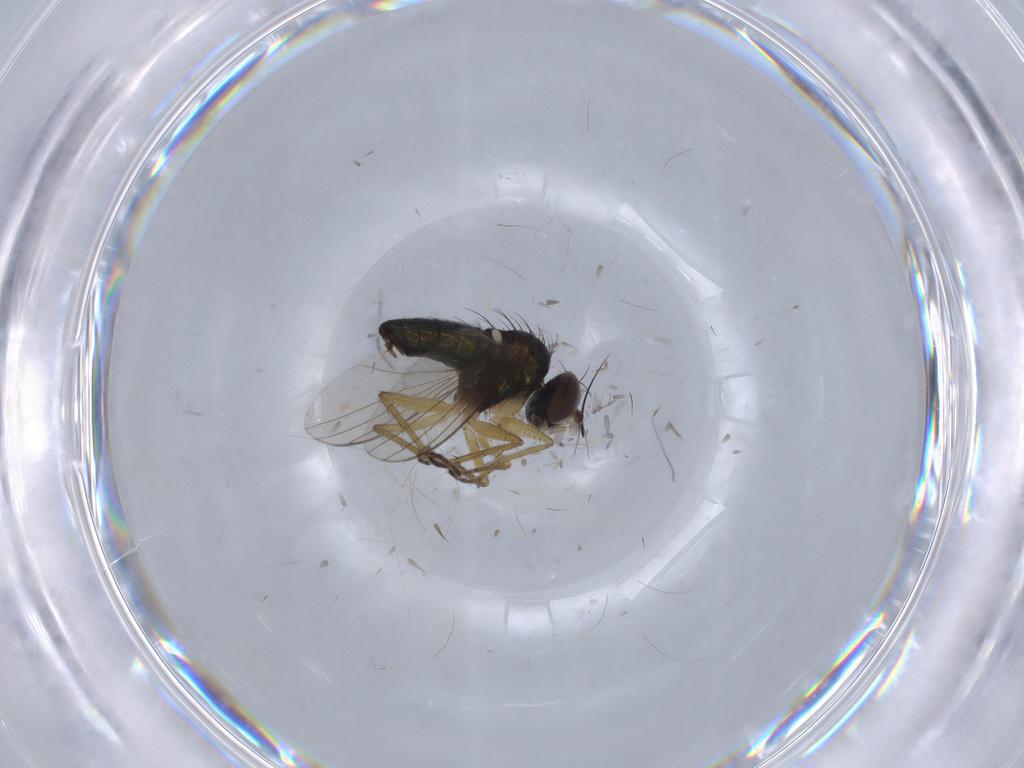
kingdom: Animalia
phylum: Arthropoda
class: Insecta
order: Diptera
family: Dolichopodidae
